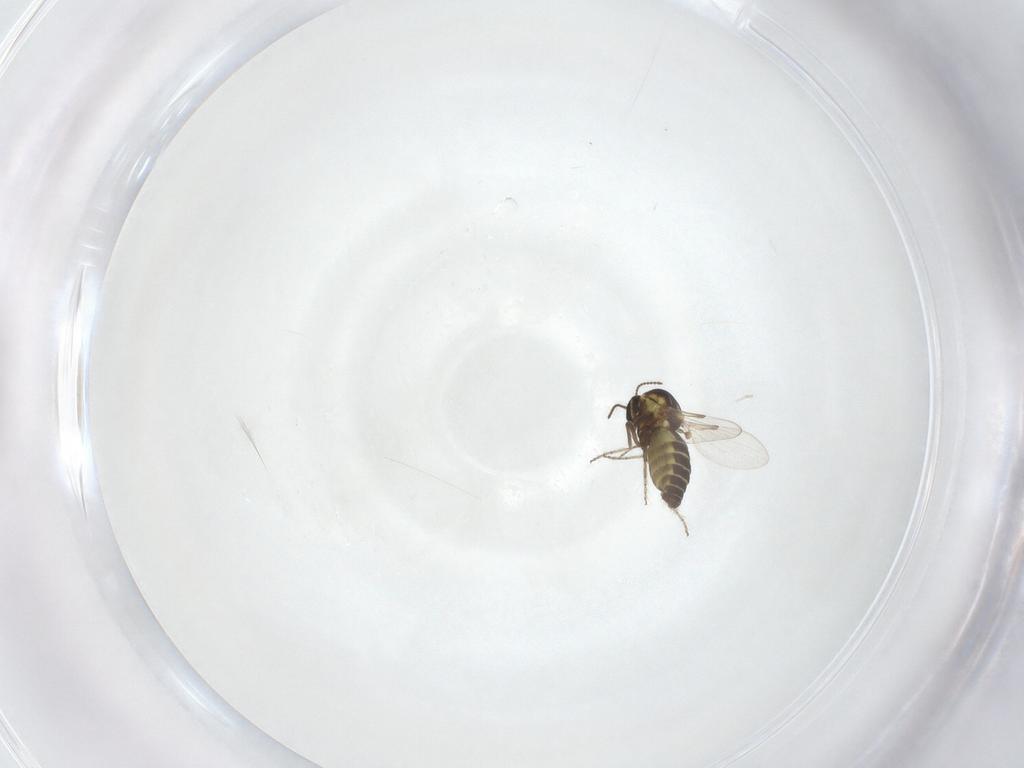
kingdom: Animalia
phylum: Arthropoda
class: Insecta
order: Diptera
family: Ceratopogonidae
